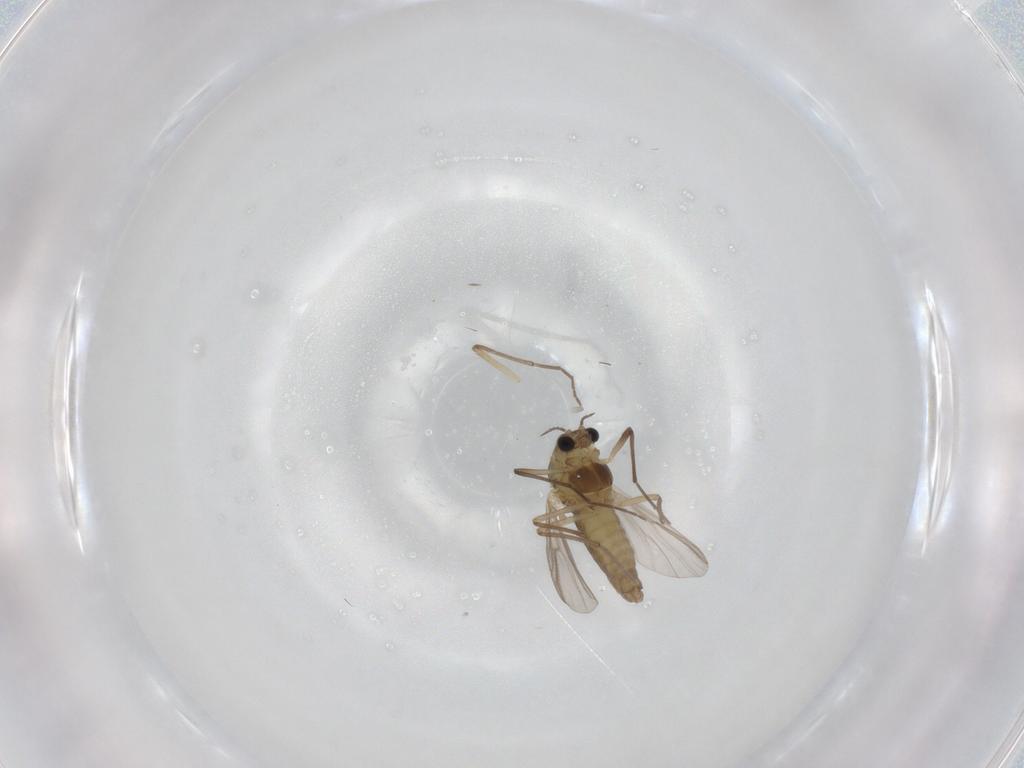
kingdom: Animalia
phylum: Arthropoda
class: Insecta
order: Diptera
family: Chironomidae
